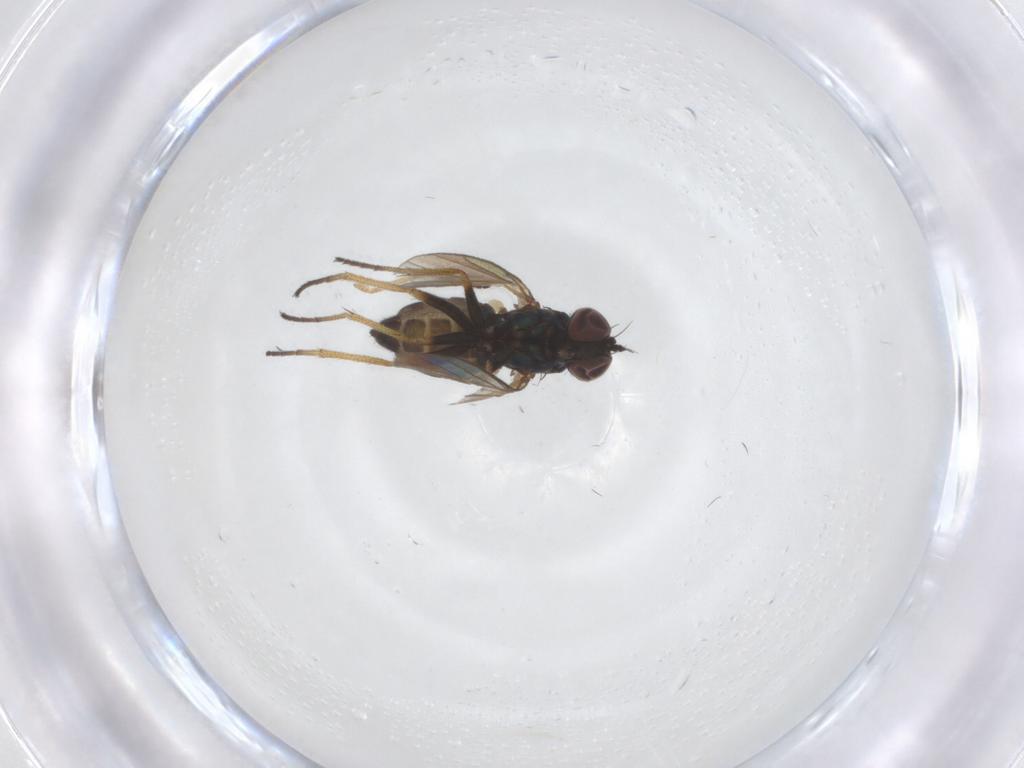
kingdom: Animalia
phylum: Arthropoda
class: Insecta
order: Diptera
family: Dolichopodidae
